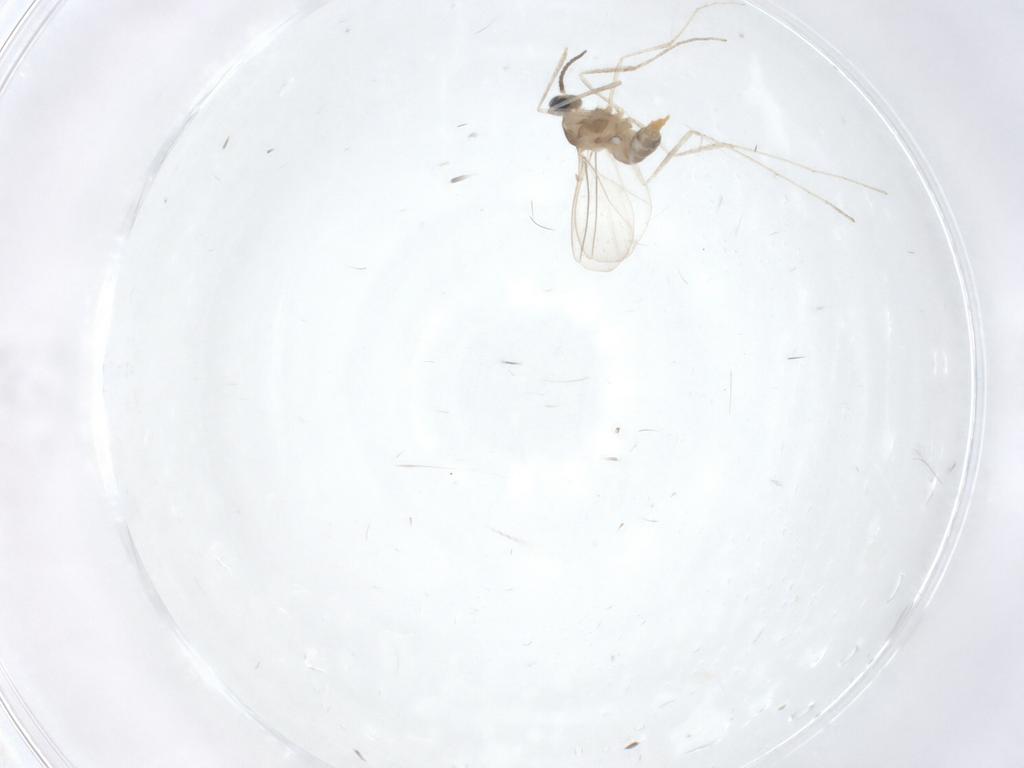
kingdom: Animalia
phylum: Arthropoda
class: Insecta
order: Diptera
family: Cecidomyiidae
